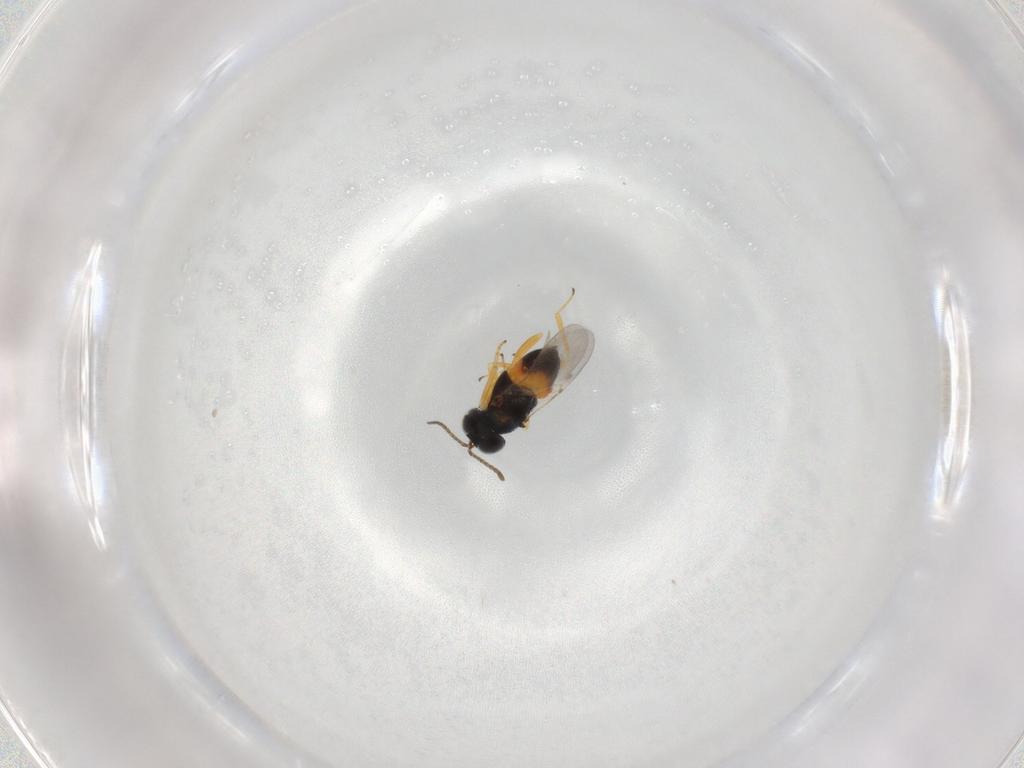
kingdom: Animalia
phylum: Arthropoda
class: Insecta
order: Hymenoptera
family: Encyrtidae
